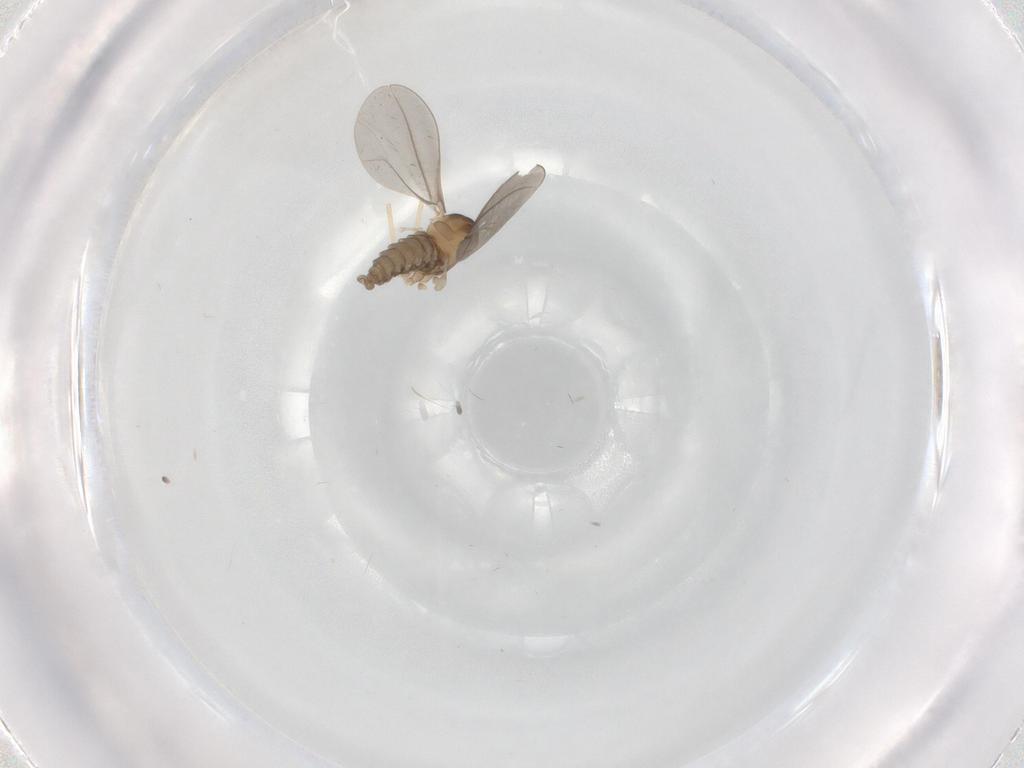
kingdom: Animalia
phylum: Arthropoda
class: Insecta
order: Diptera
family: Cecidomyiidae
